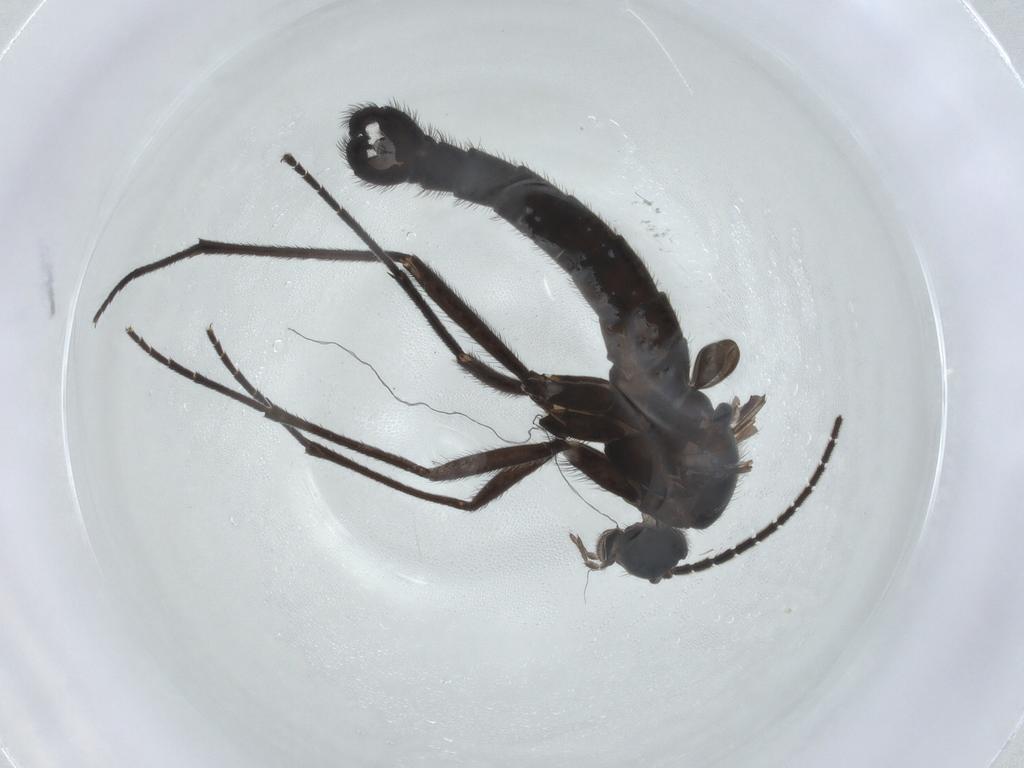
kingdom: Animalia
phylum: Arthropoda
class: Insecta
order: Diptera
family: Sciaridae
